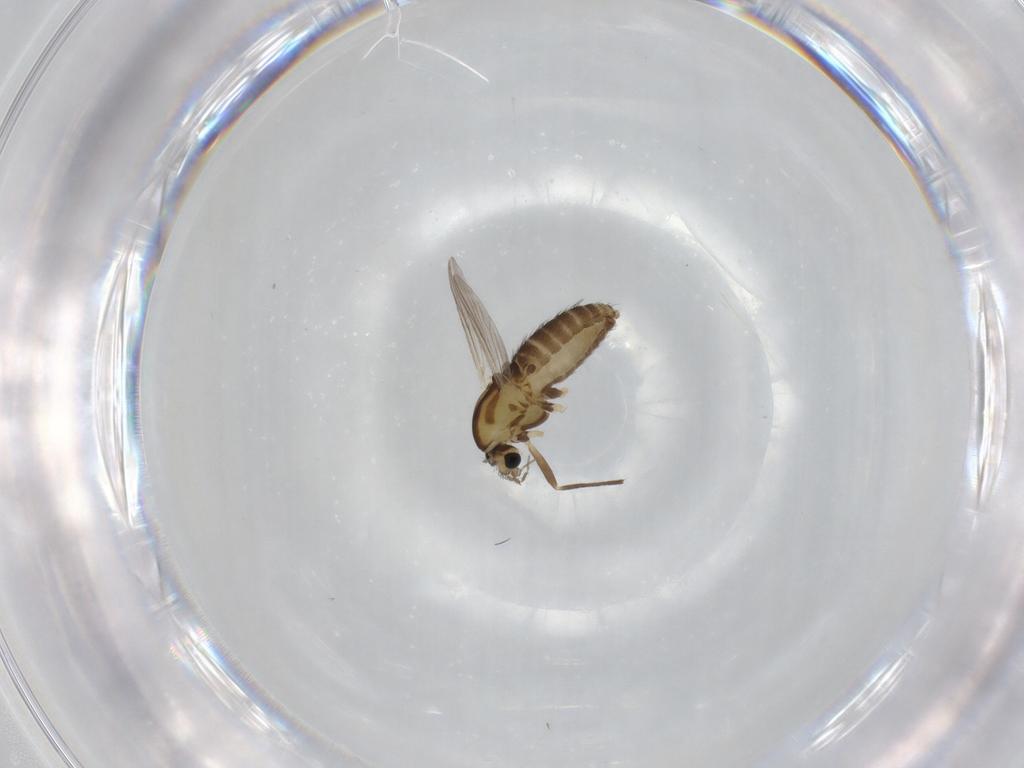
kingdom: Animalia
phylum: Arthropoda
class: Insecta
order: Diptera
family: Chironomidae
